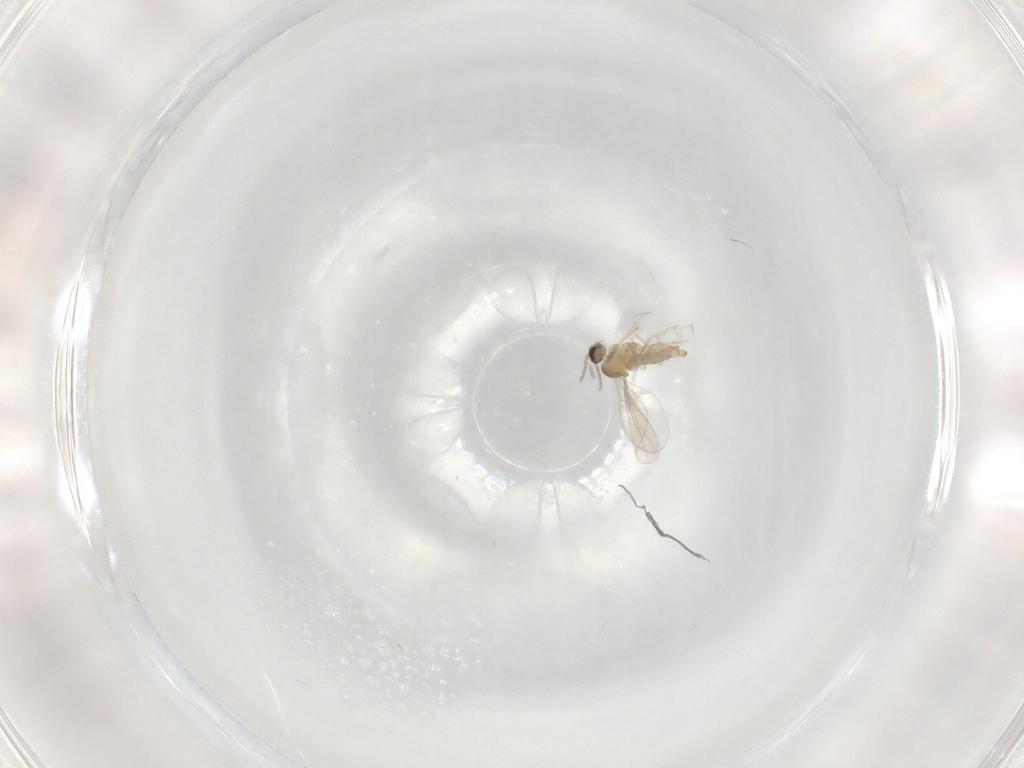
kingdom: Animalia
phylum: Arthropoda
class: Insecta
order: Diptera
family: Cecidomyiidae
